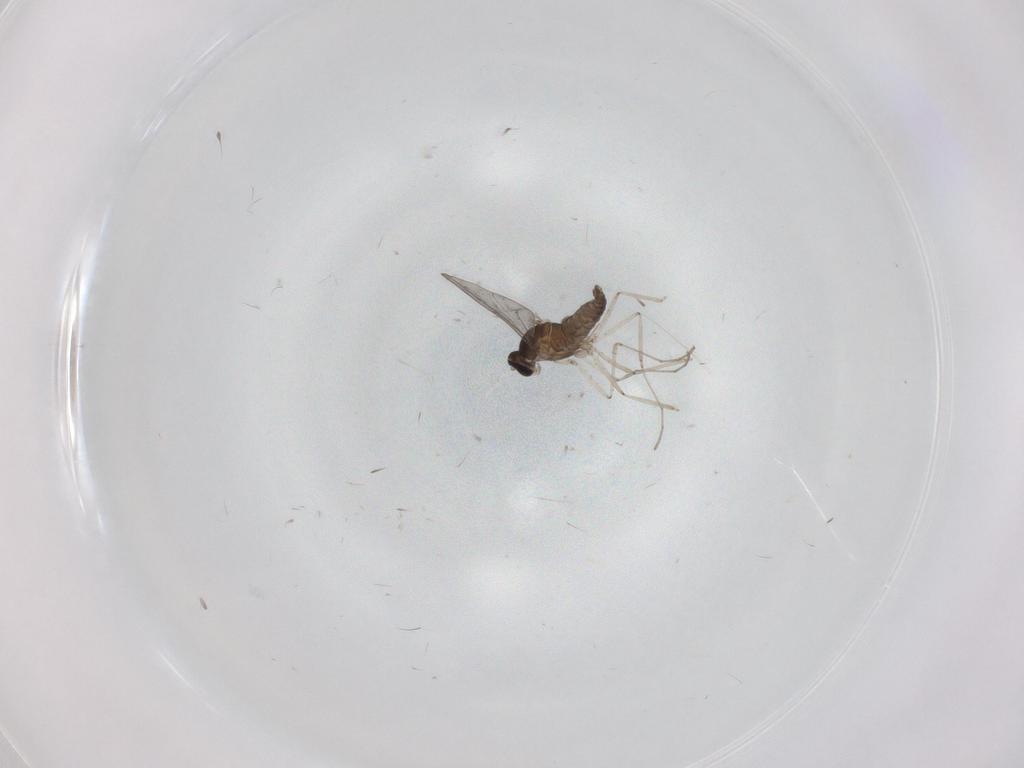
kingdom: Animalia
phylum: Arthropoda
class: Insecta
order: Diptera
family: Cecidomyiidae
